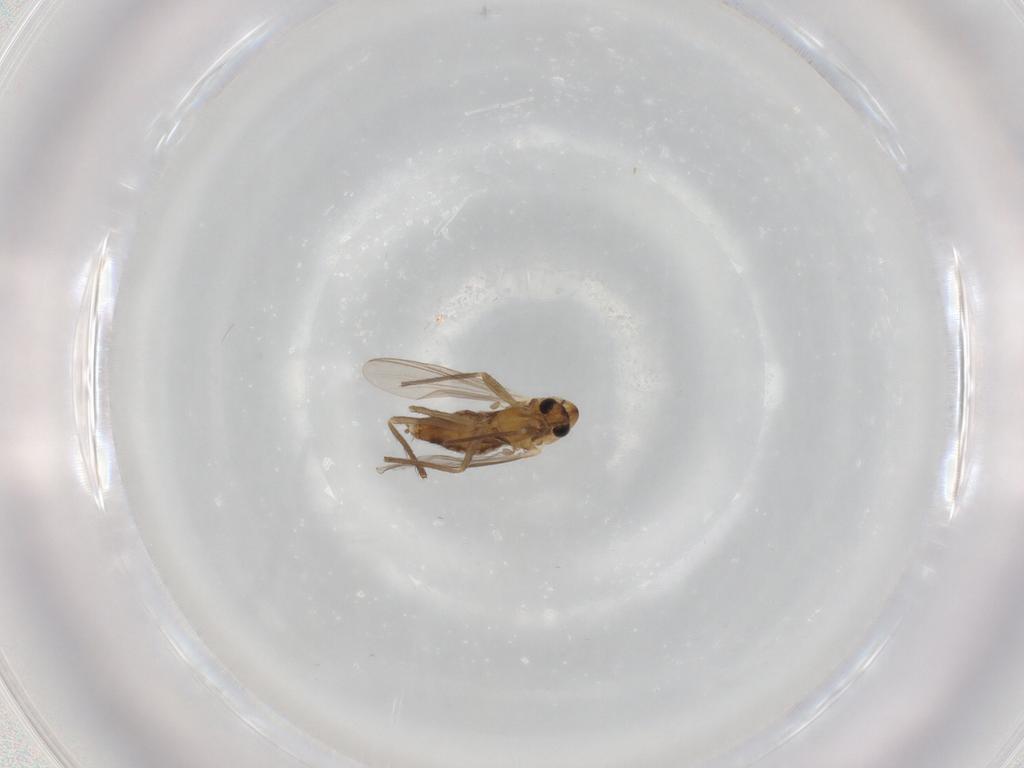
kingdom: Animalia
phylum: Arthropoda
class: Insecta
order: Diptera
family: Chironomidae
